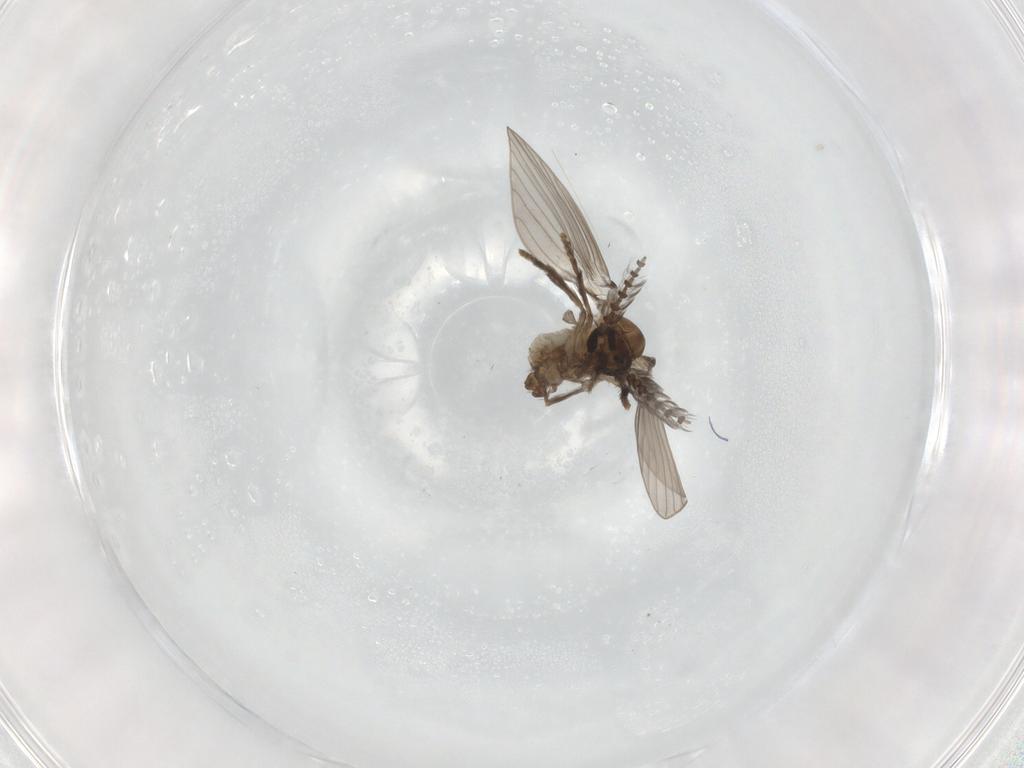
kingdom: Animalia
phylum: Arthropoda
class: Insecta
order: Diptera
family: Psychodidae
